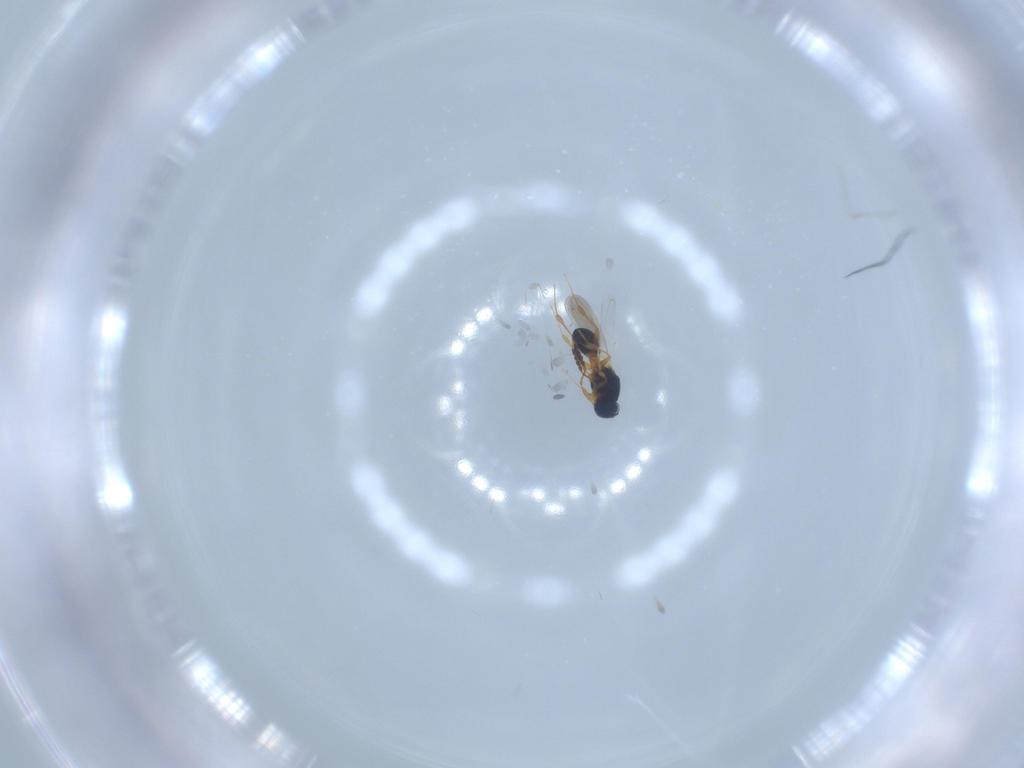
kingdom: Animalia
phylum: Arthropoda
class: Insecta
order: Hymenoptera
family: Platygastridae
